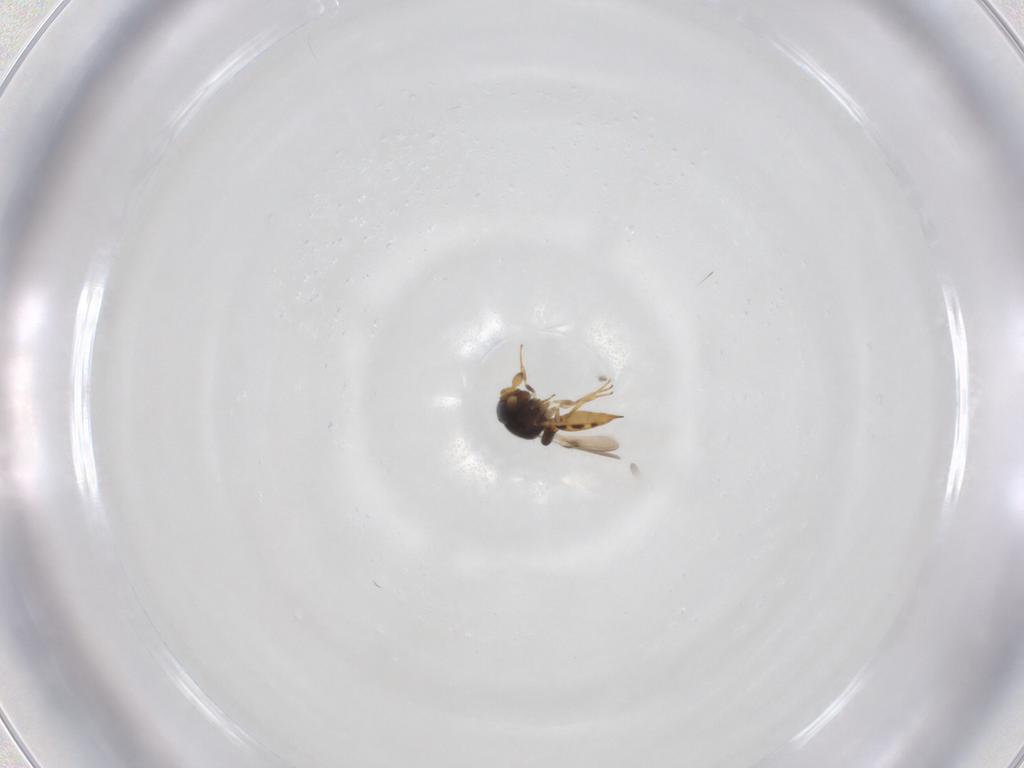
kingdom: Animalia
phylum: Arthropoda
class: Insecta
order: Hymenoptera
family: Scelionidae
